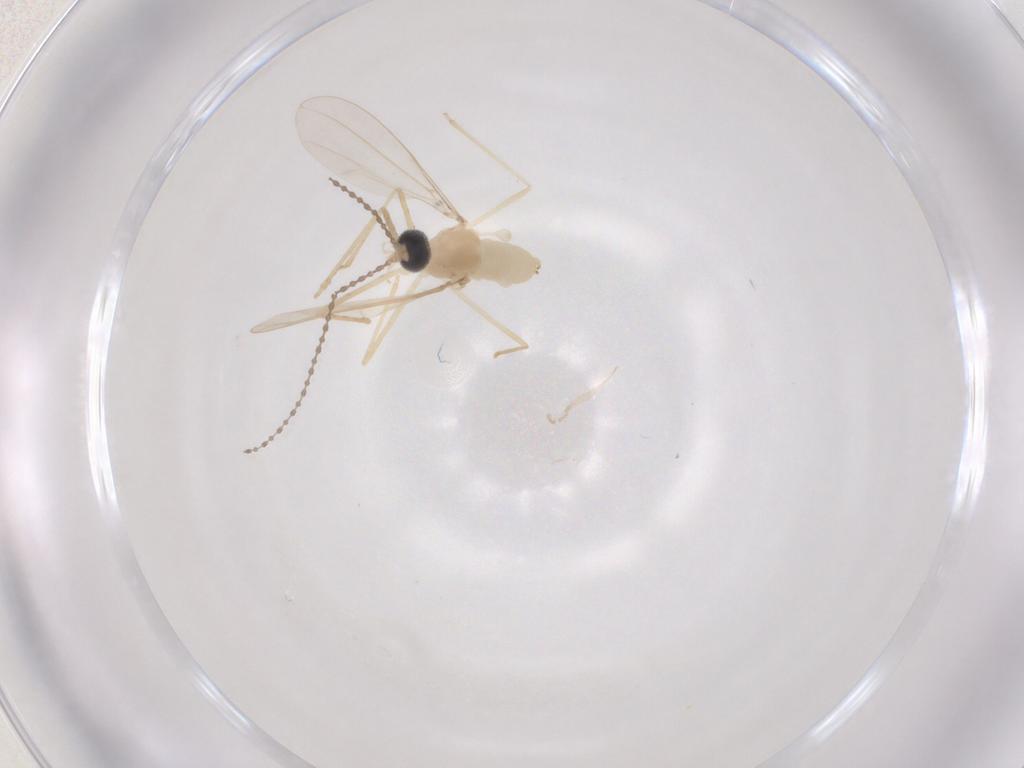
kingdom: Animalia
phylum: Arthropoda
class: Insecta
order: Diptera
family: Cecidomyiidae
